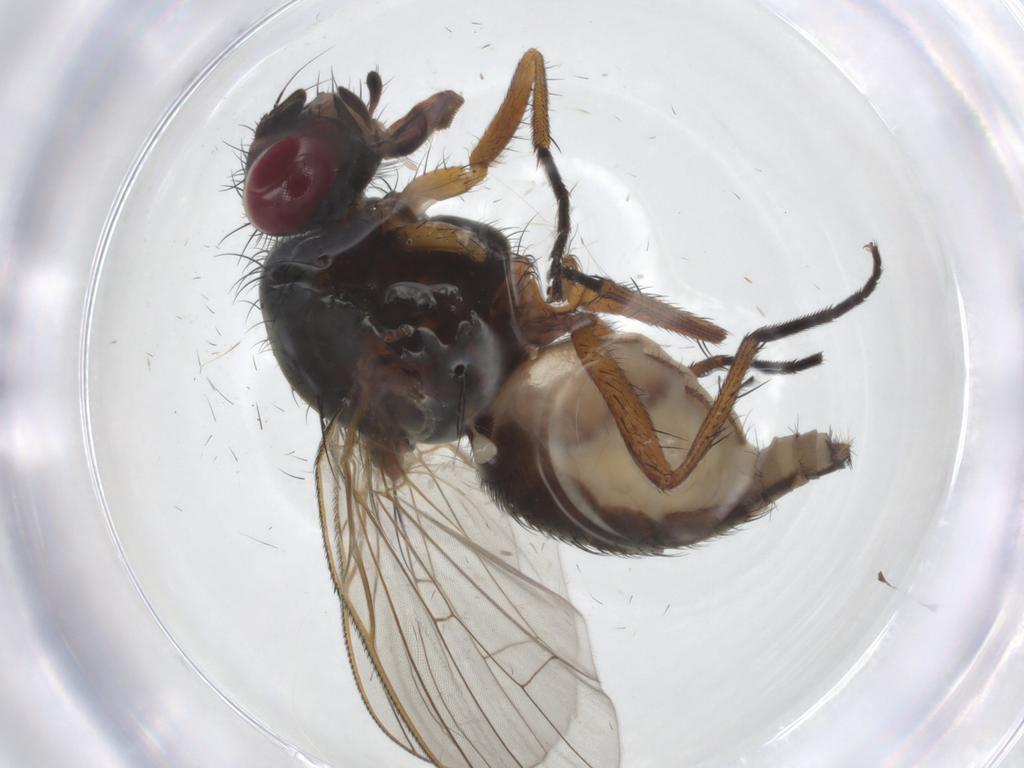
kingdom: Animalia
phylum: Arthropoda
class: Insecta
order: Diptera
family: Anthomyiidae
